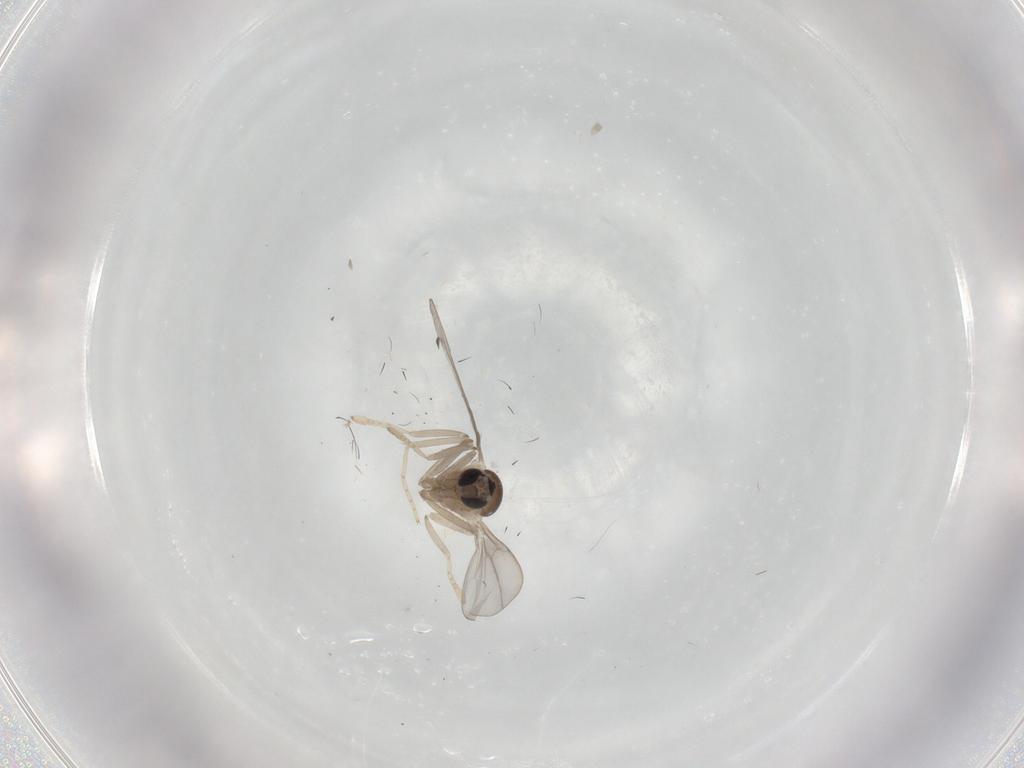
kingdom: Animalia
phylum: Arthropoda
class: Insecta
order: Diptera
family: Cecidomyiidae
